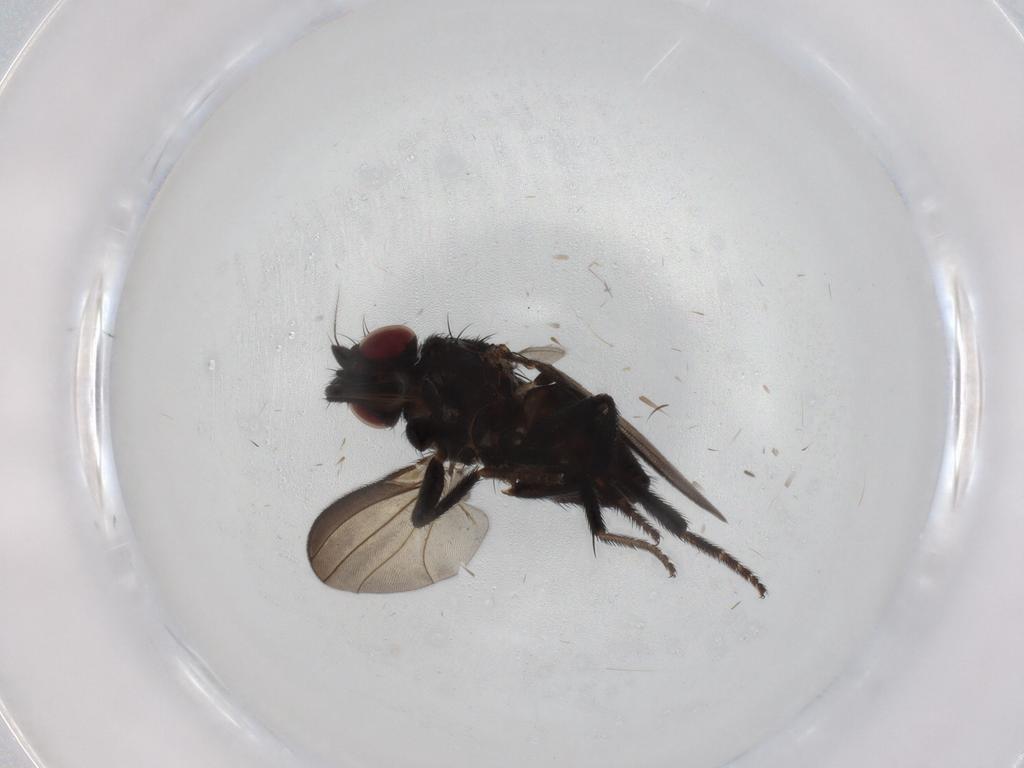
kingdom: Animalia
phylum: Arthropoda
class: Insecta
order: Diptera
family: Milichiidae
